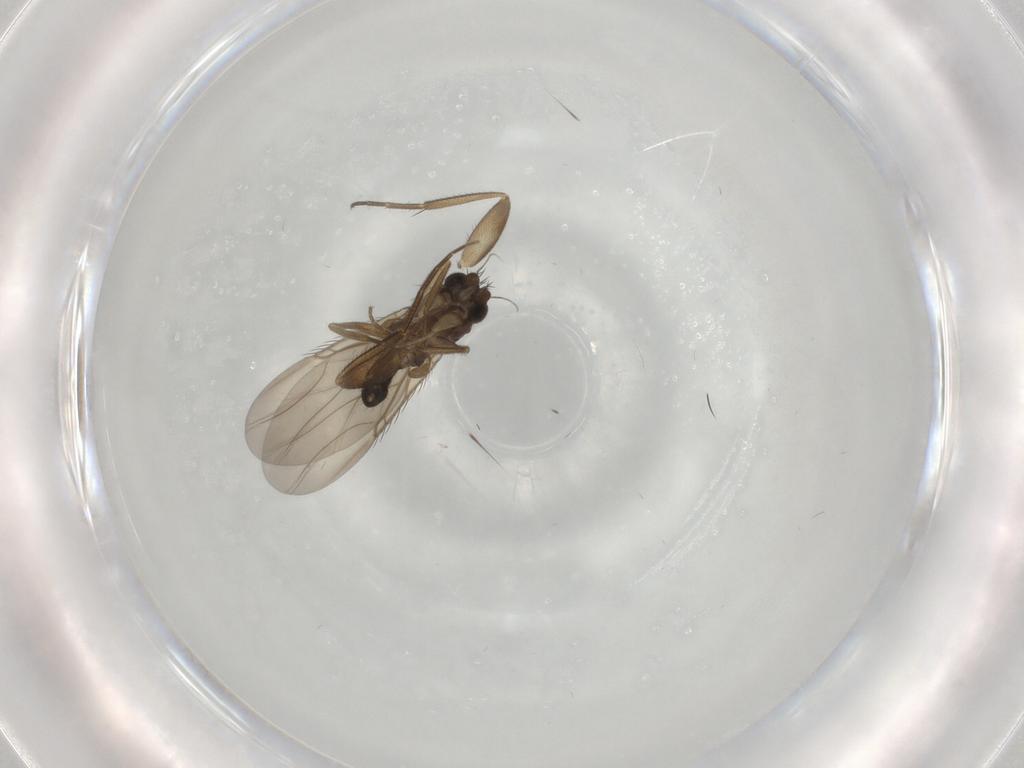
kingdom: Animalia
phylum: Arthropoda
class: Insecta
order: Diptera
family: Phoridae
